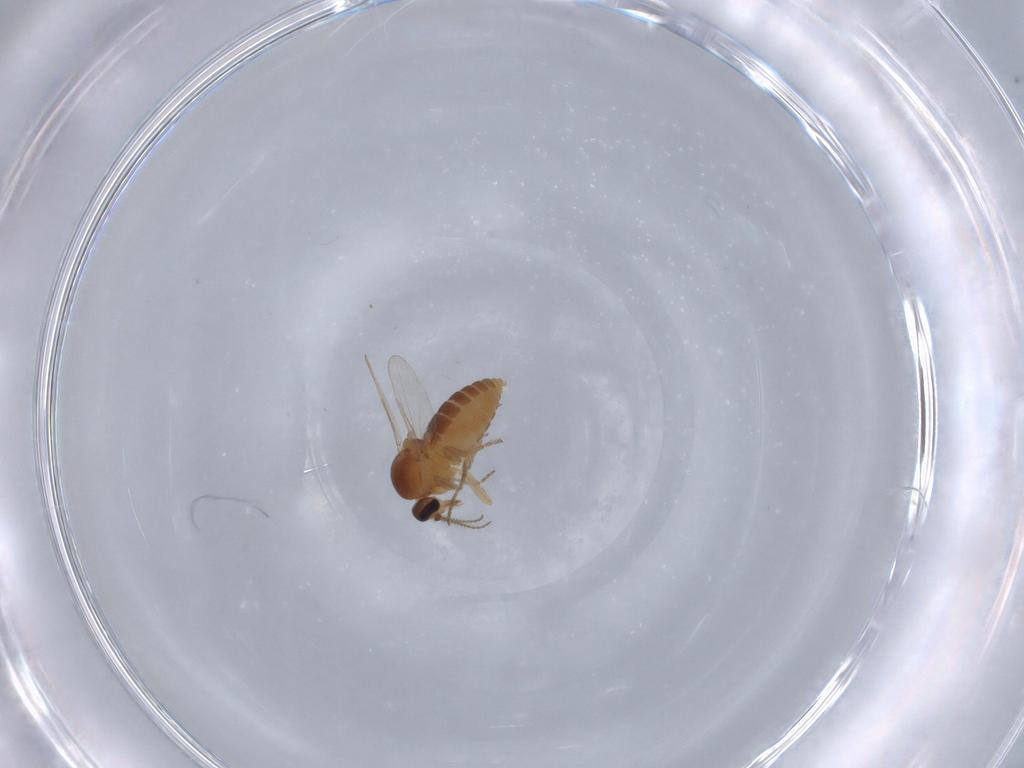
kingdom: Animalia
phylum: Arthropoda
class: Insecta
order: Diptera
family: Ceratopogonidae
